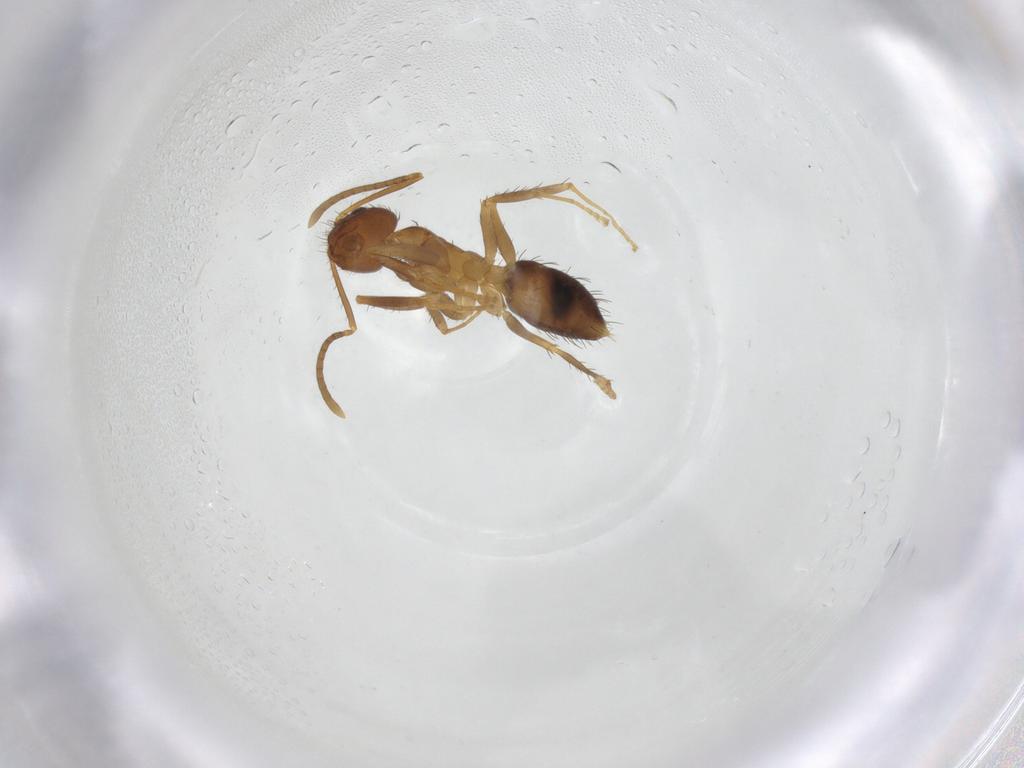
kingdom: Animalia
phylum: Arthropoda
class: Insecta
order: Hymenoptera
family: Formicidae
